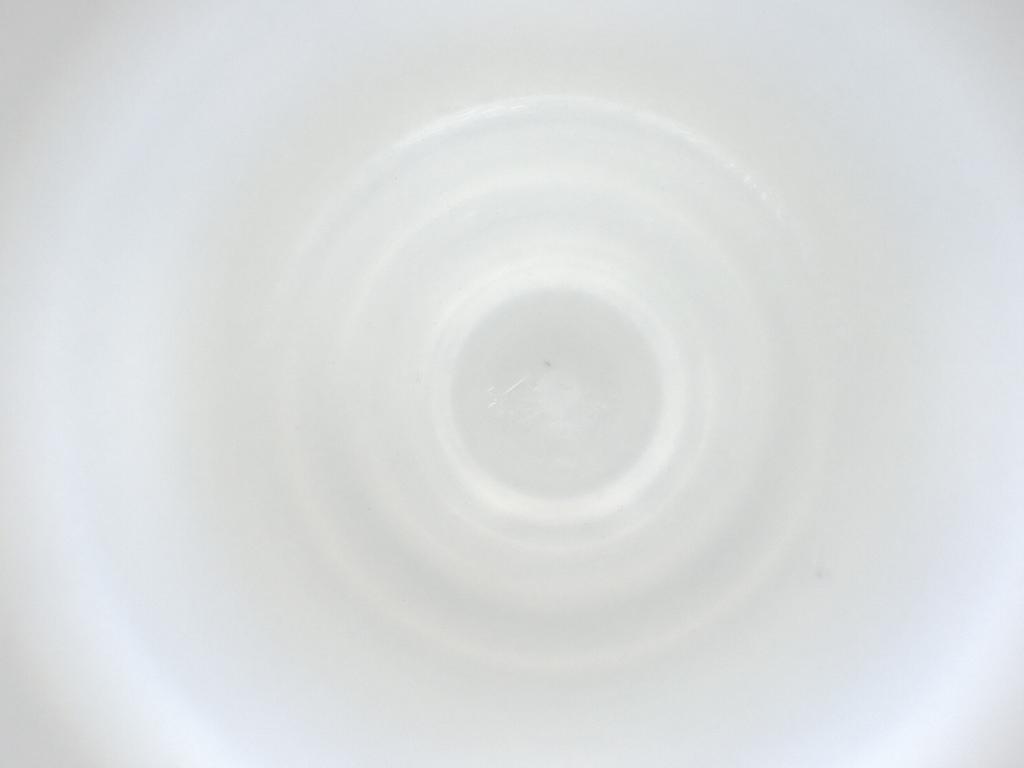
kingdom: Animalia
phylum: Arthropoda
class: Insecta
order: Diptera
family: Cecidomyiidae
